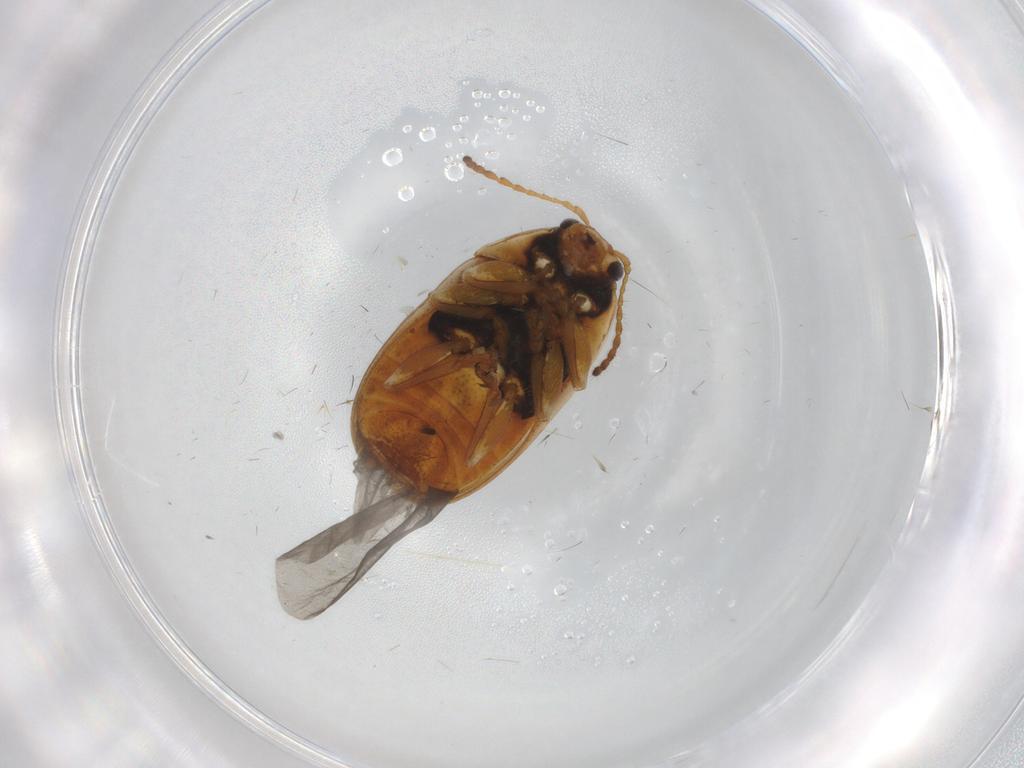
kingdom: Animalia
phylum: Arthropoda
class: Insecta
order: Coleoptera
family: Chrysomelidae
